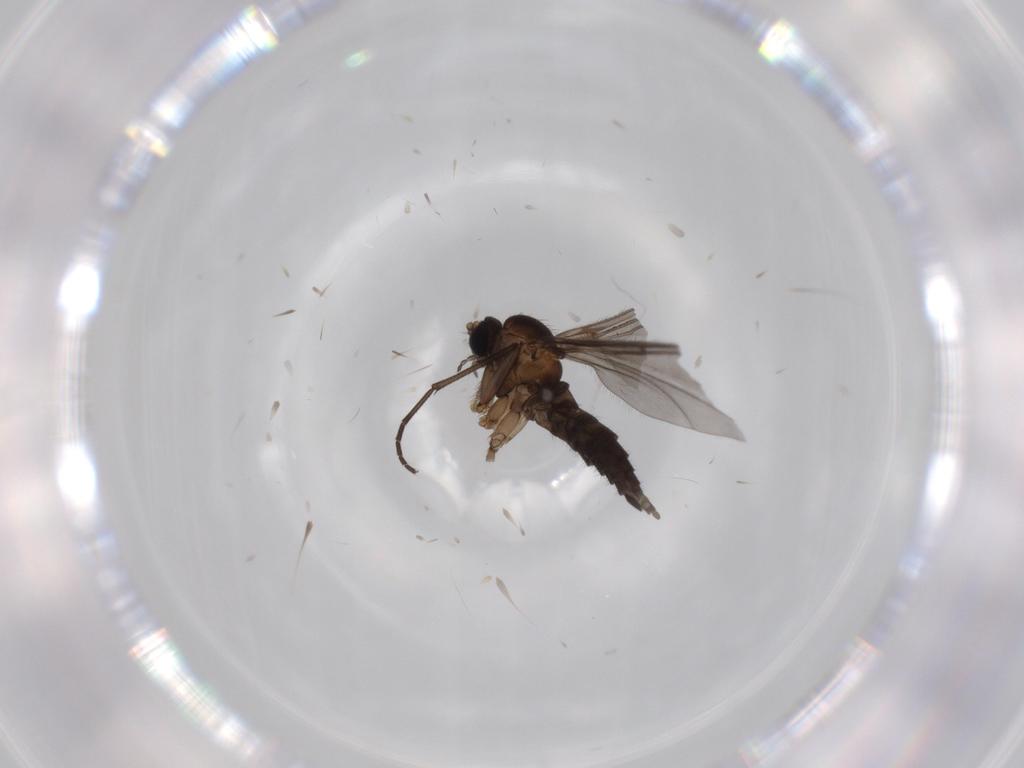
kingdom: Animalia
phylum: Arthropoda
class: Insecta
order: Diptera
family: Sciaridae
